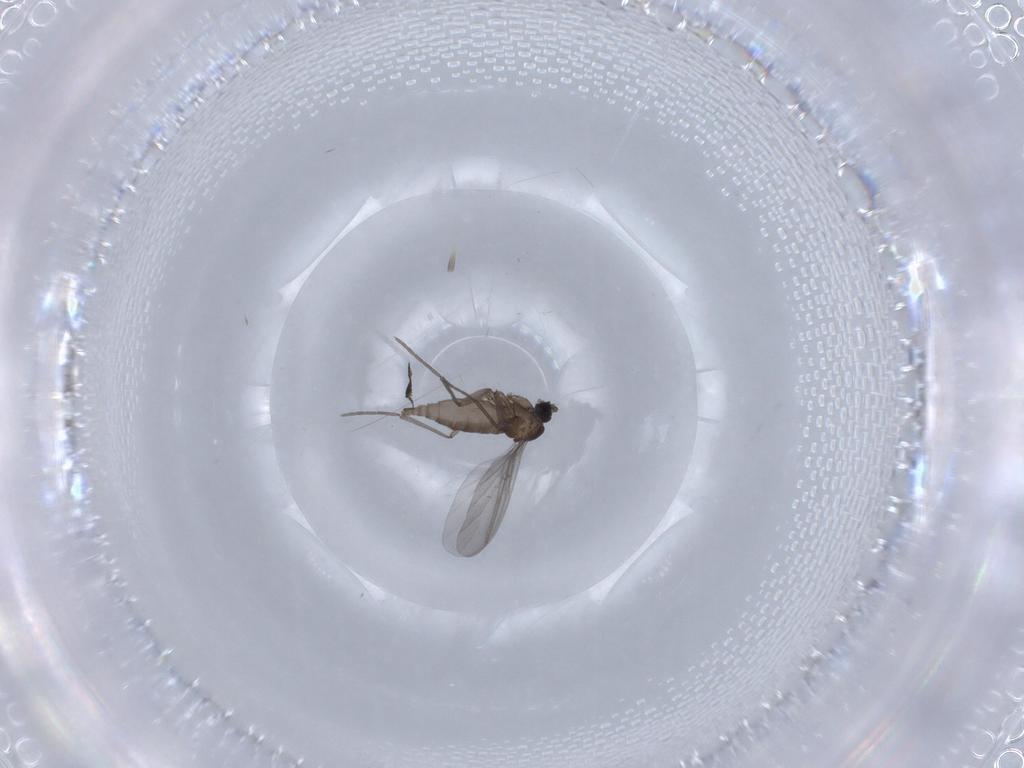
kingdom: Animalia
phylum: Arthropoda
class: Insecta
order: Diptera
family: Sciaridae
